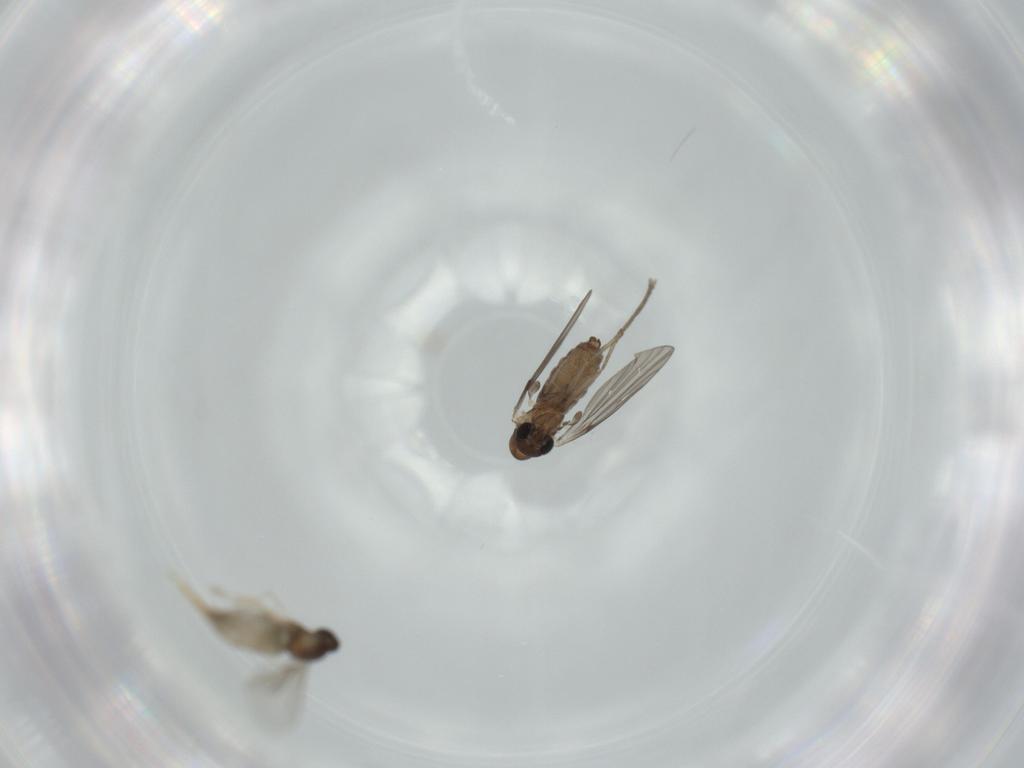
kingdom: Animalia
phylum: Arthropoda
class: Insecta
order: Diptera
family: Cecidomyiidae
